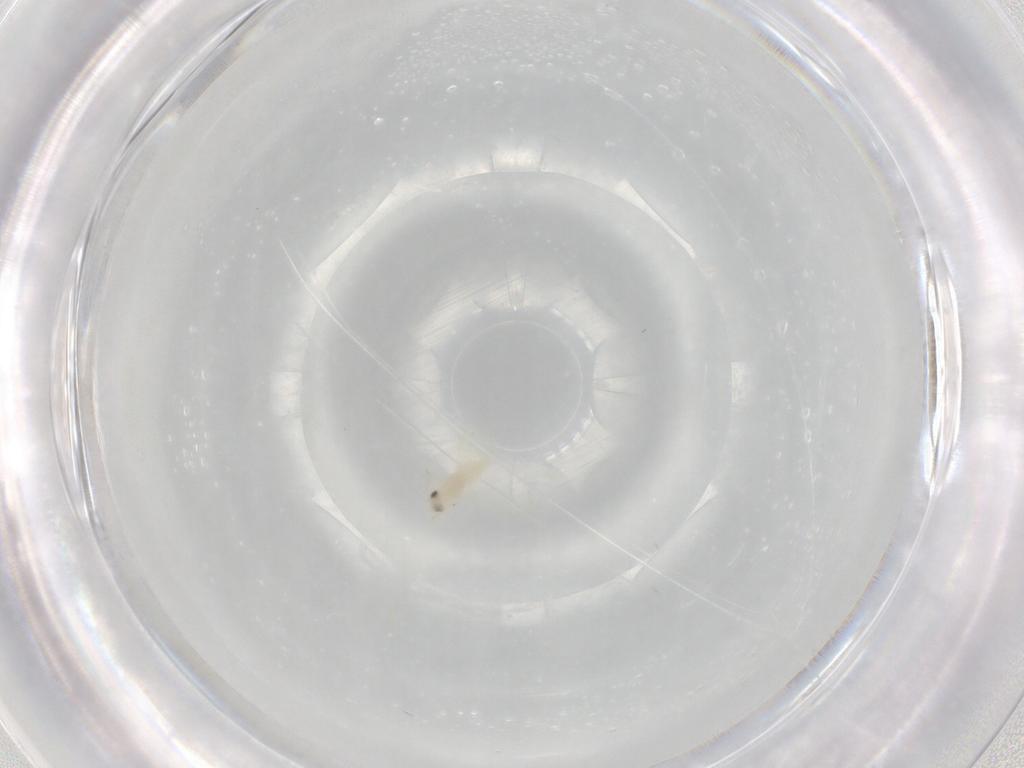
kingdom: Animalia
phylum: Arthropoda
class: Insecta
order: Hemiptera
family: Aleyrodidae
